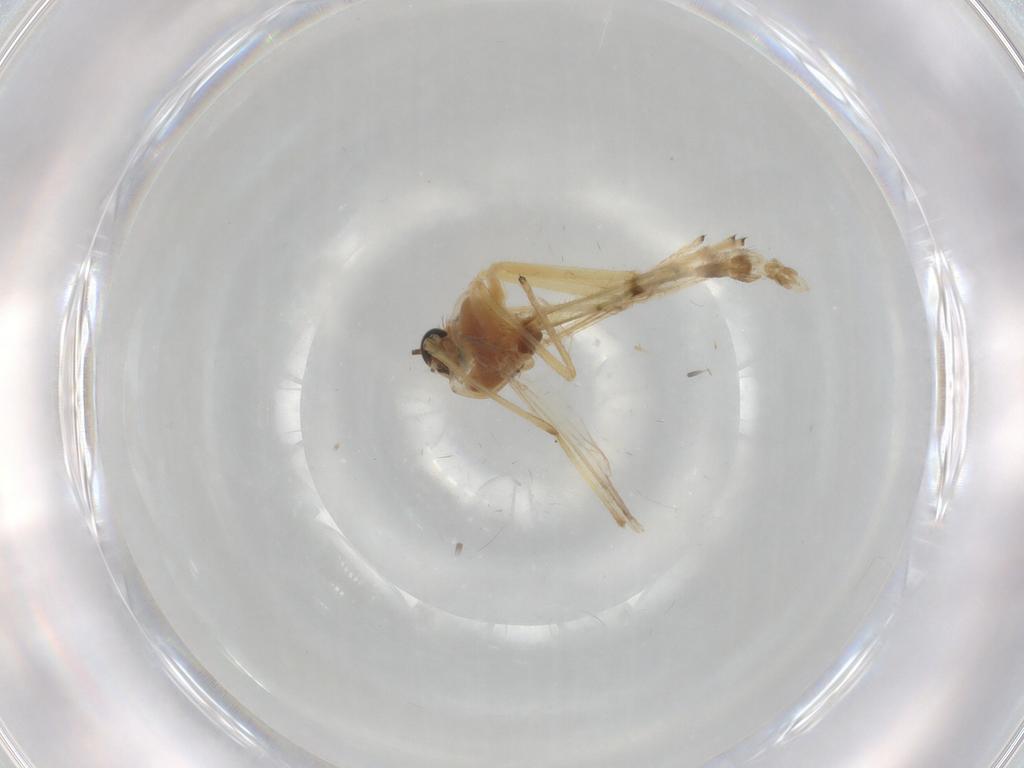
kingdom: Animalia
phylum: Arthropoda
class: Insecta
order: Diptera
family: Chironomidae
